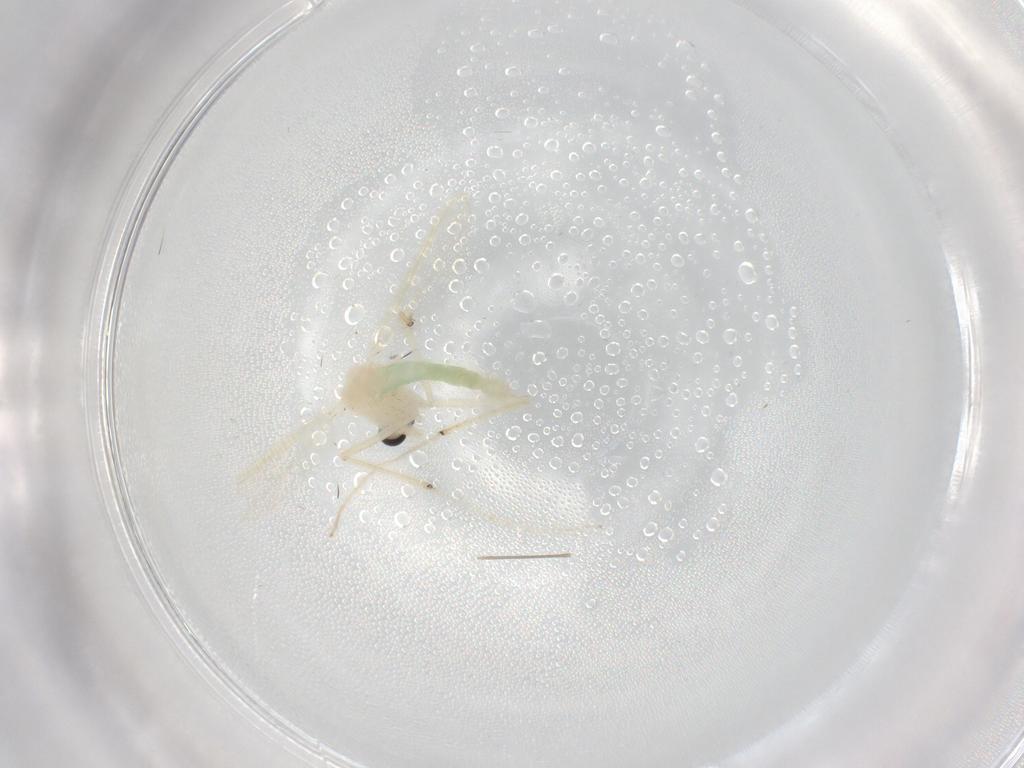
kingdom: Animalia
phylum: Arthropoda
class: Insecta
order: Diptera
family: Chironomidae
